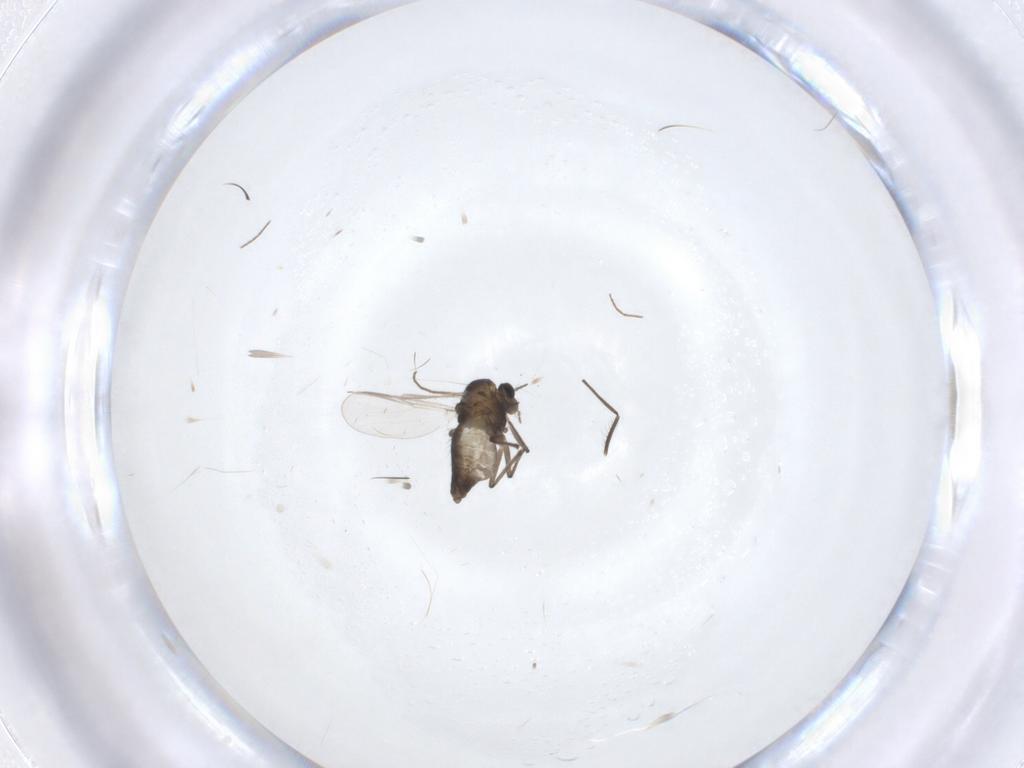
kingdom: Animalia
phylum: Arthropoda
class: Insecta
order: Diptera
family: Chironomidae
